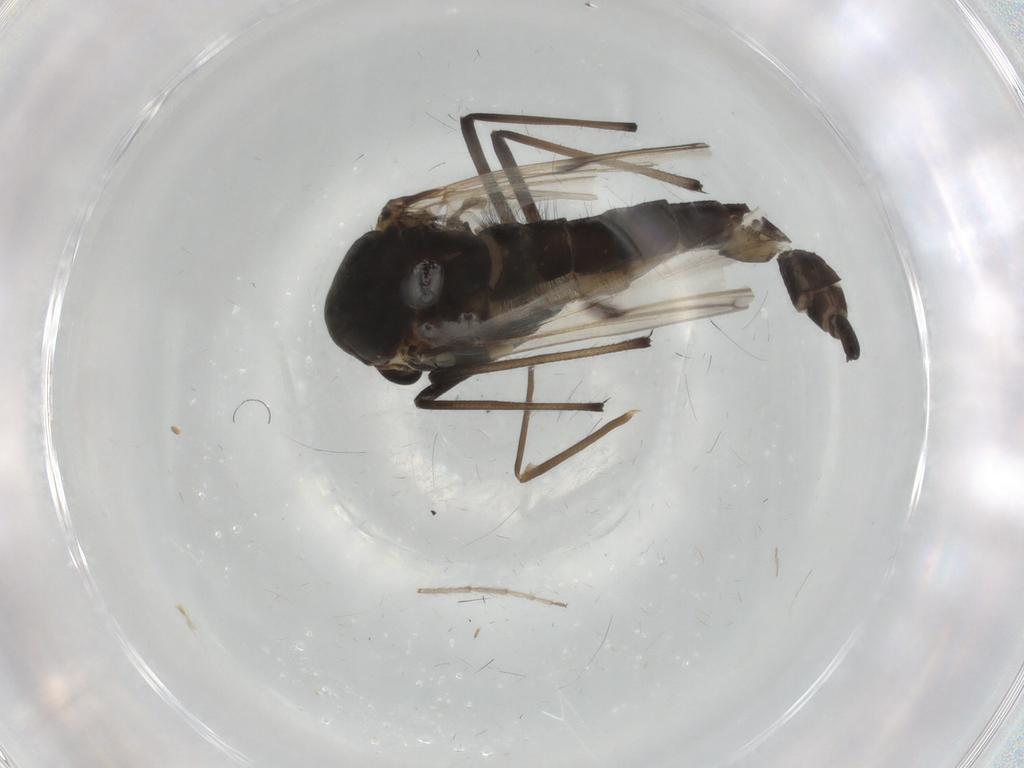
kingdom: Animalia
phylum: Arthropoda
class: Insecta
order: Diptera
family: Chironomidae
